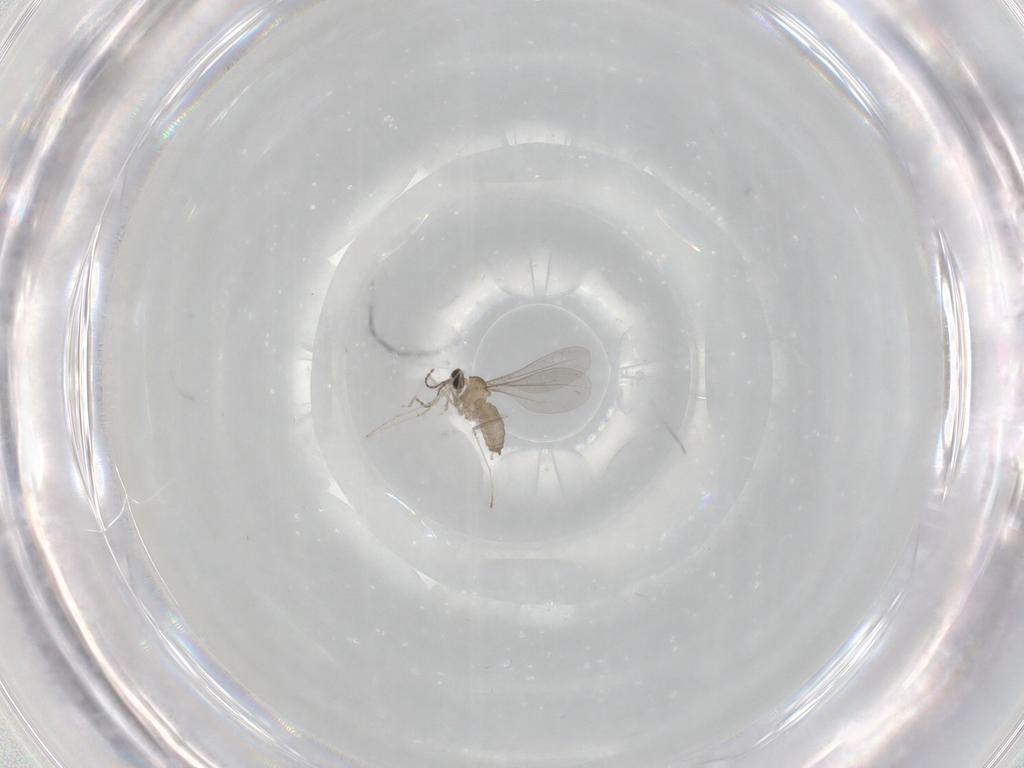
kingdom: Animalia
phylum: Arthropoda
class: Insecta
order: Diptera
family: Cecidomyiidae
